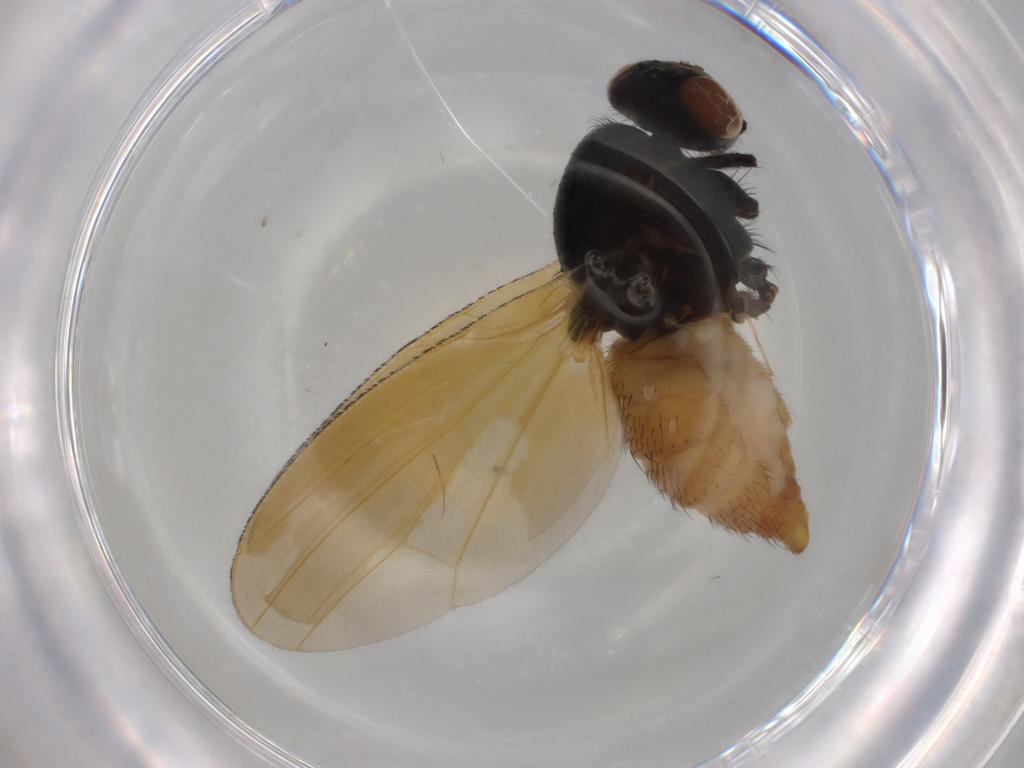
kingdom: Animalia
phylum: Arthropoda
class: Insecta
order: Diptera
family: Lauxaniidae
